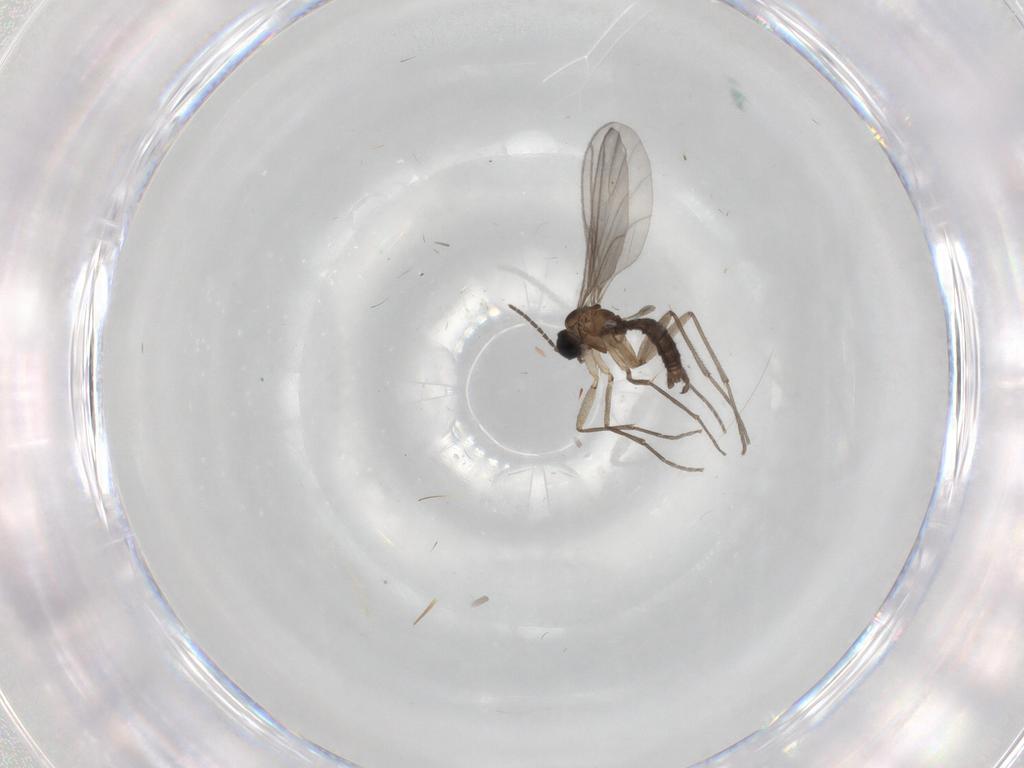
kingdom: Animalia
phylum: Arthropoda
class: Insecta
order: Diptera
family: Sciaridae
